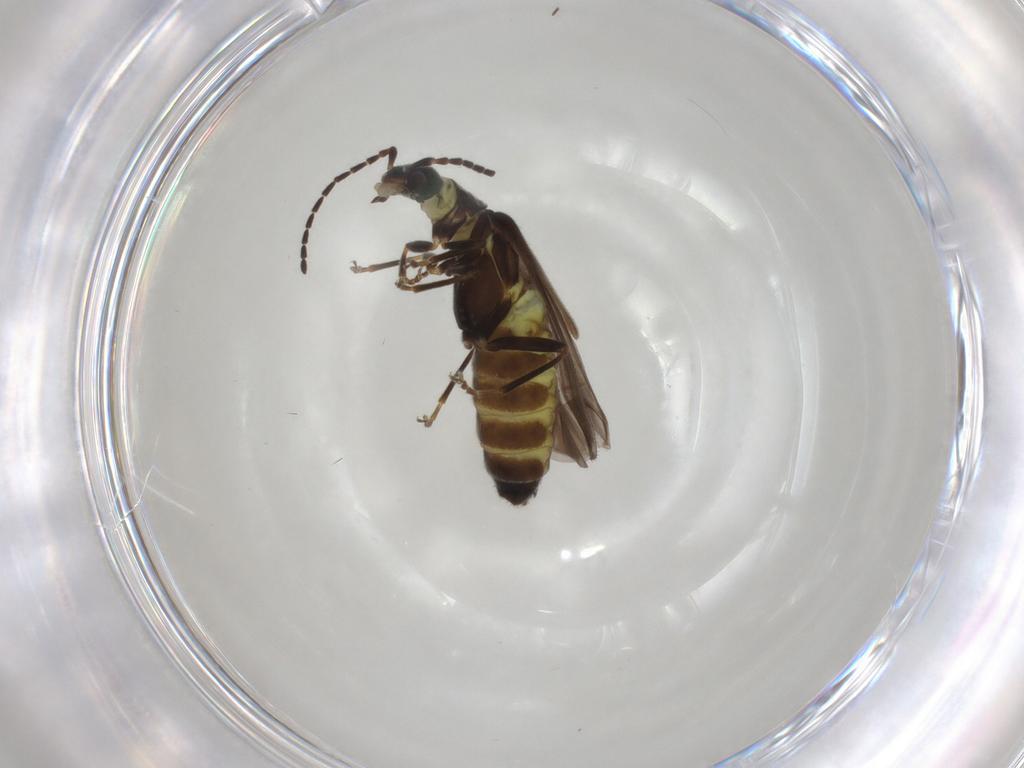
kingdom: Animalia
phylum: Arthropoda
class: Insecta
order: Coleoptera
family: Cantharidae
